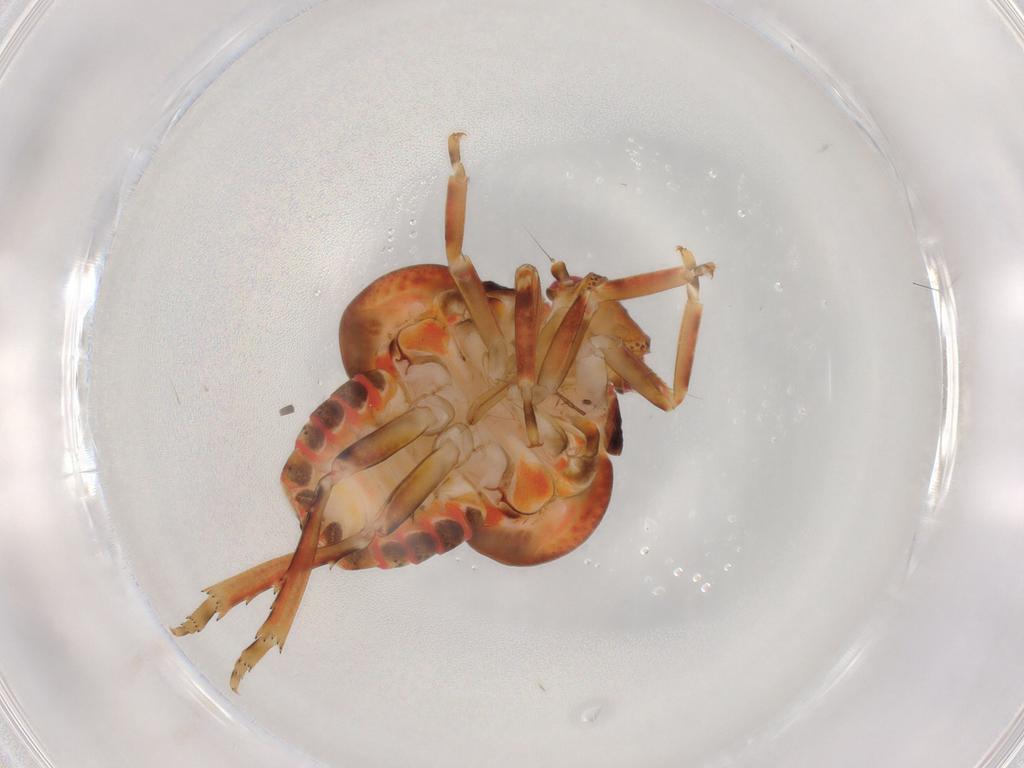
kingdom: Animalia
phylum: Arthropoda
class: Insecta
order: Hemiptera
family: Flatidae
